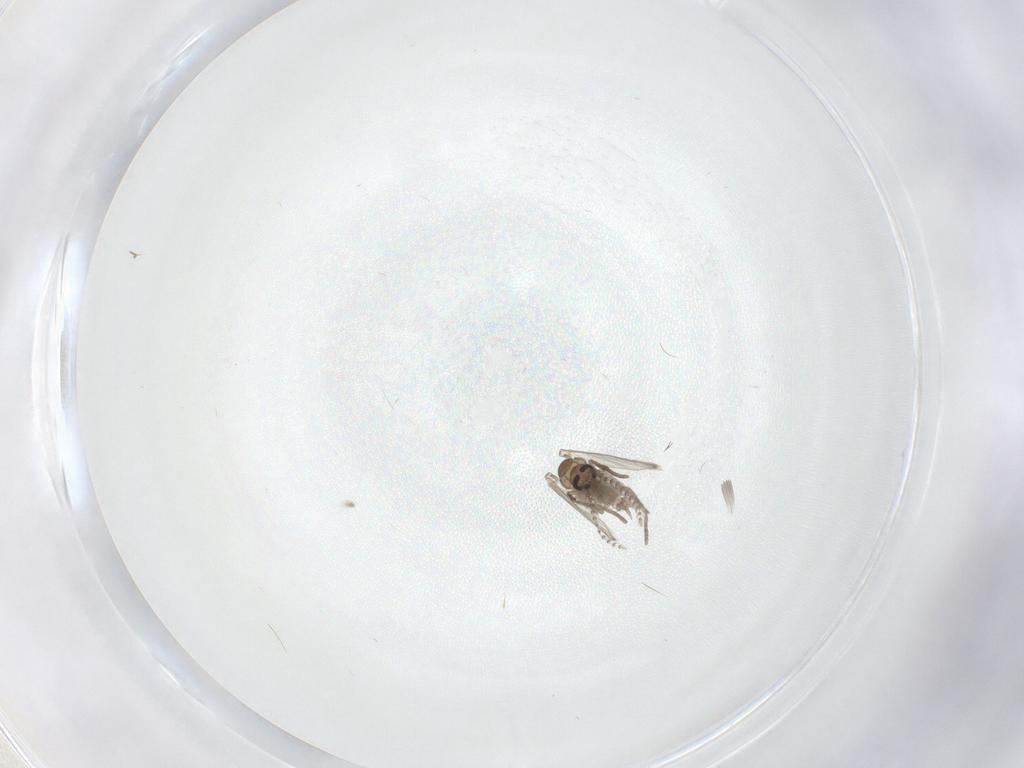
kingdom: Animalia
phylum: Arthropoda
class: Insecta
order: Diptera
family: Psychodidae
